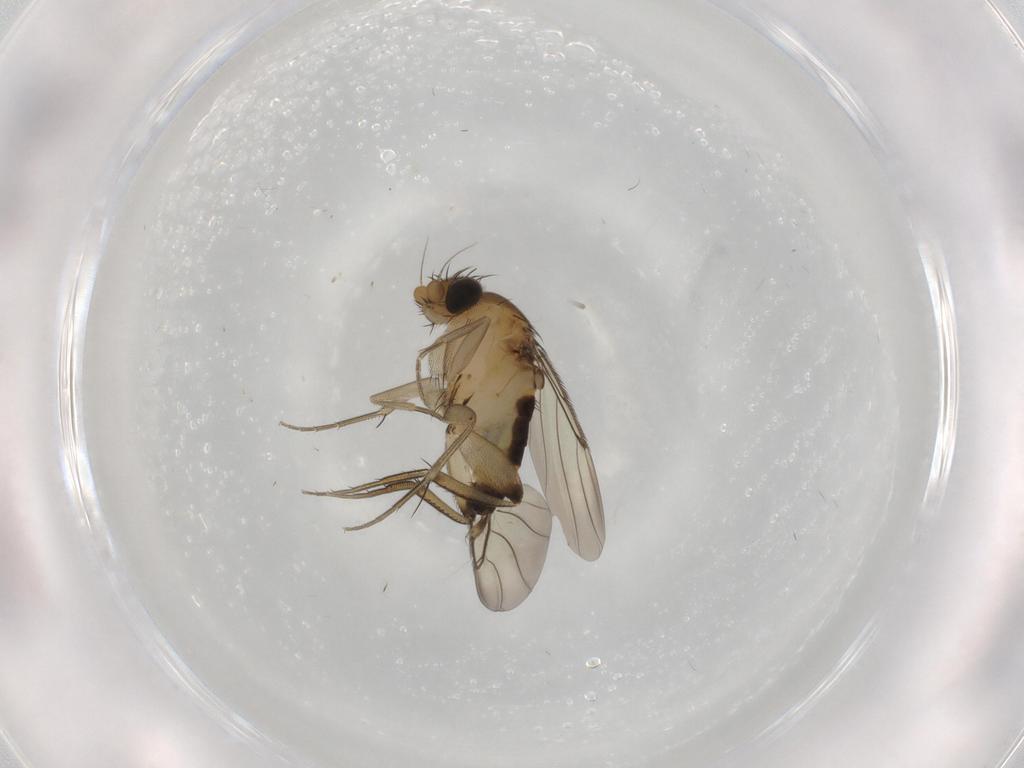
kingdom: Animalia
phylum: Arthropoda
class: Insecta
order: Diptera
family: Phoridae
